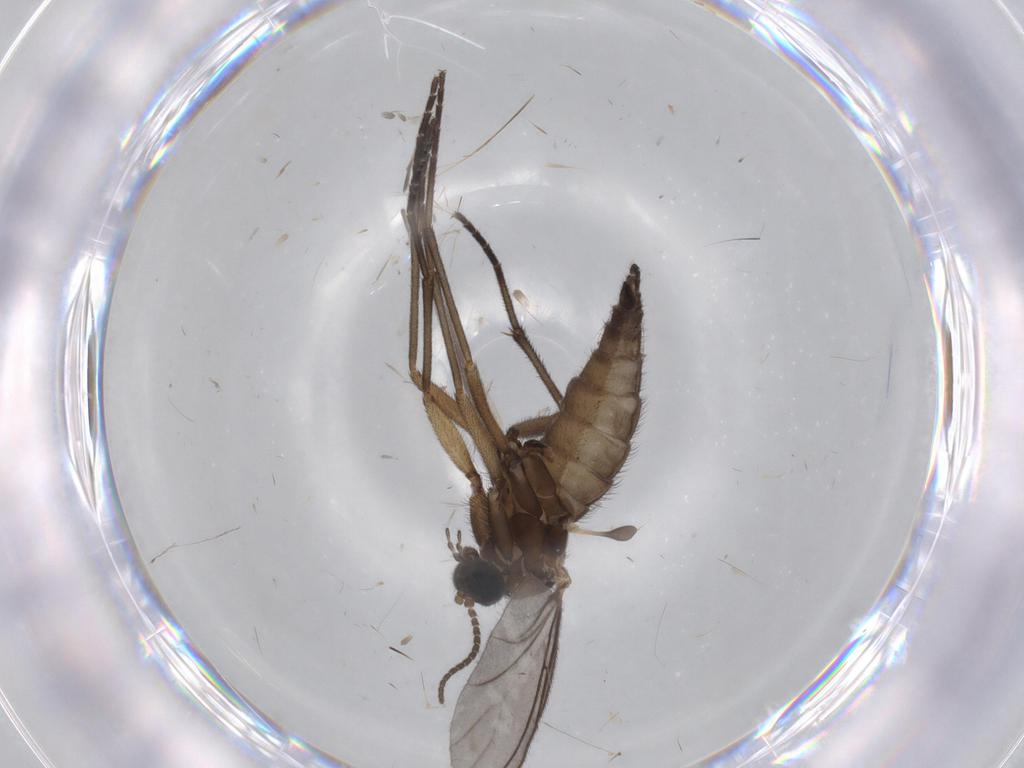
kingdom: Animalia
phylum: Arthropoda
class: Insecta
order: Diptera
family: Sciaridae
